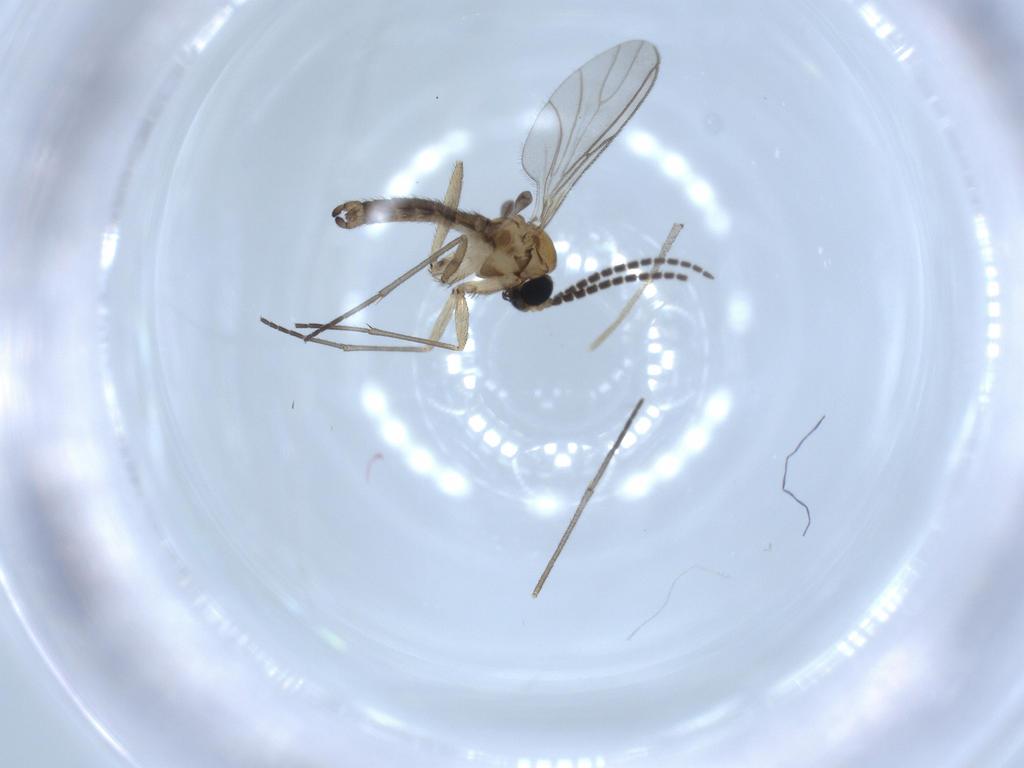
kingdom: Animalia
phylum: Arthropoda
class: Insecta
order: Diptera
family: Sciaridae
